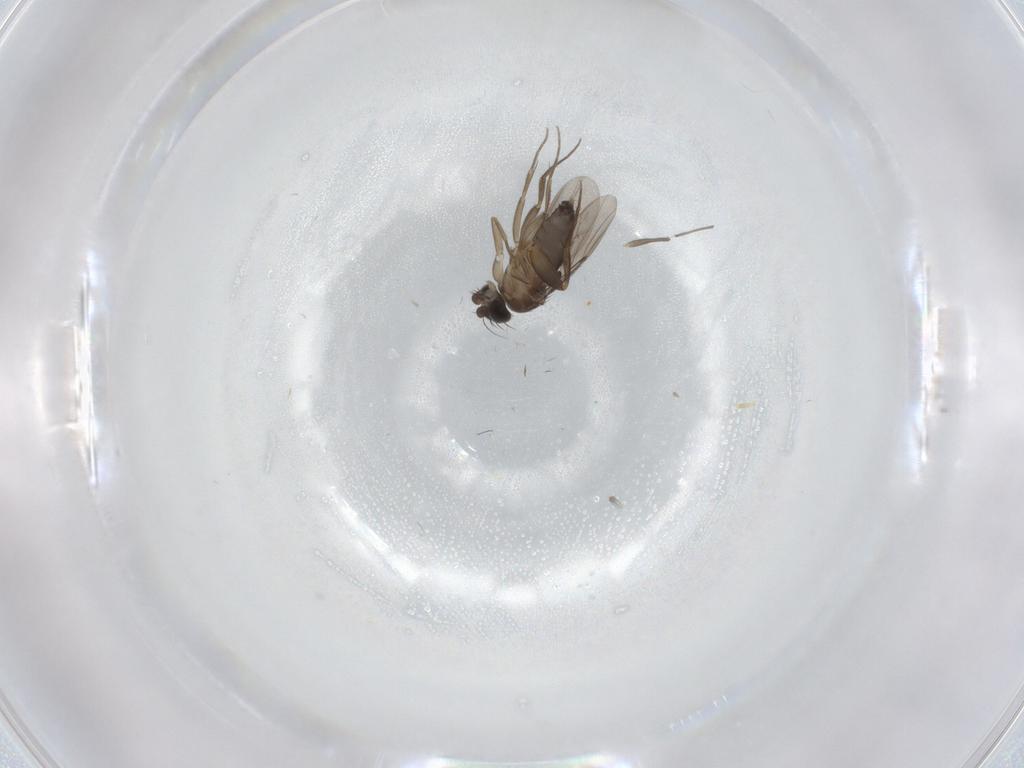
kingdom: Animalia
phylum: Arthropoda
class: Insecta
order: Diptera
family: Phoridae
